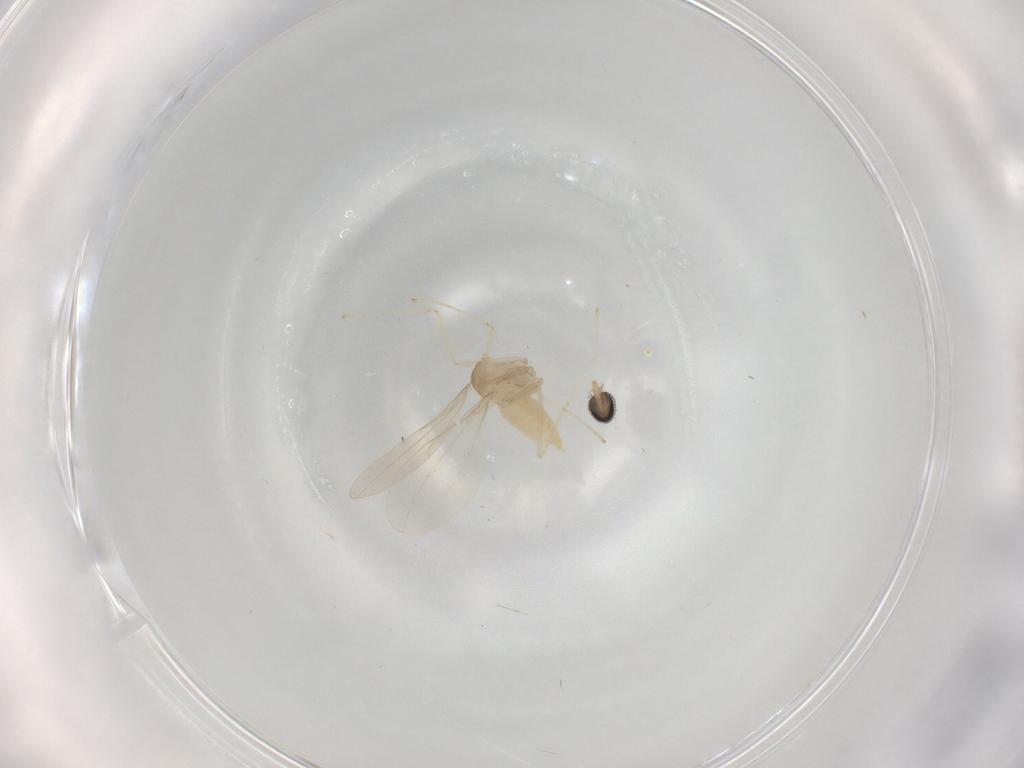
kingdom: Animalia
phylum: Arthropoda
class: Insecta
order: Diptera
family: Cecidomyiidae
